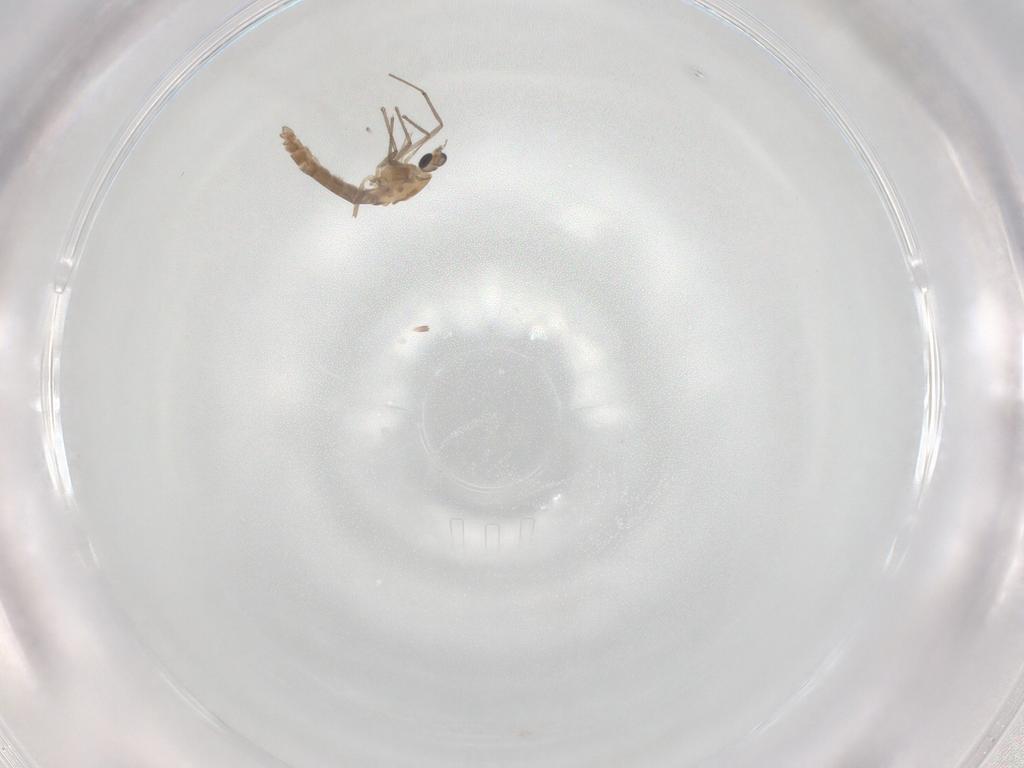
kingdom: Animalia
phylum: Arthropoda
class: Insecta
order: Diptera
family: Chironomidae
